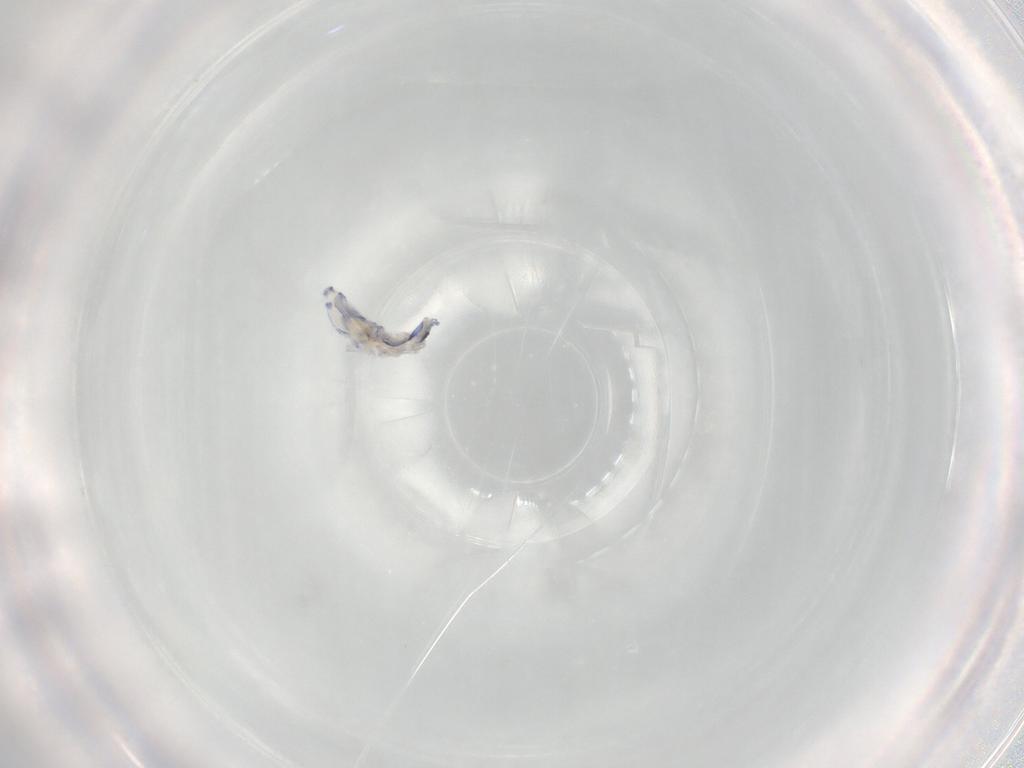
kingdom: Animalia
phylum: Arthropoda
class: Collembola
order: Entomobryomorpha
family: Entomobryidae
